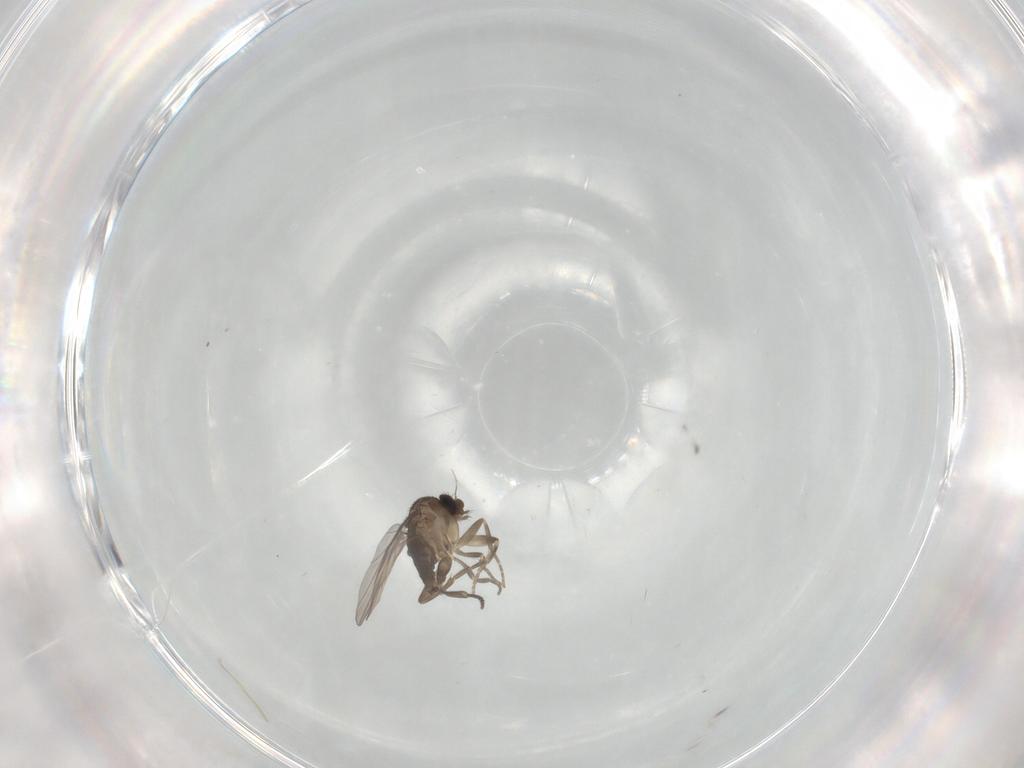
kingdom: Animalia
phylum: Arthropoda
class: Insecta
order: Diptera
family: Phoridae
